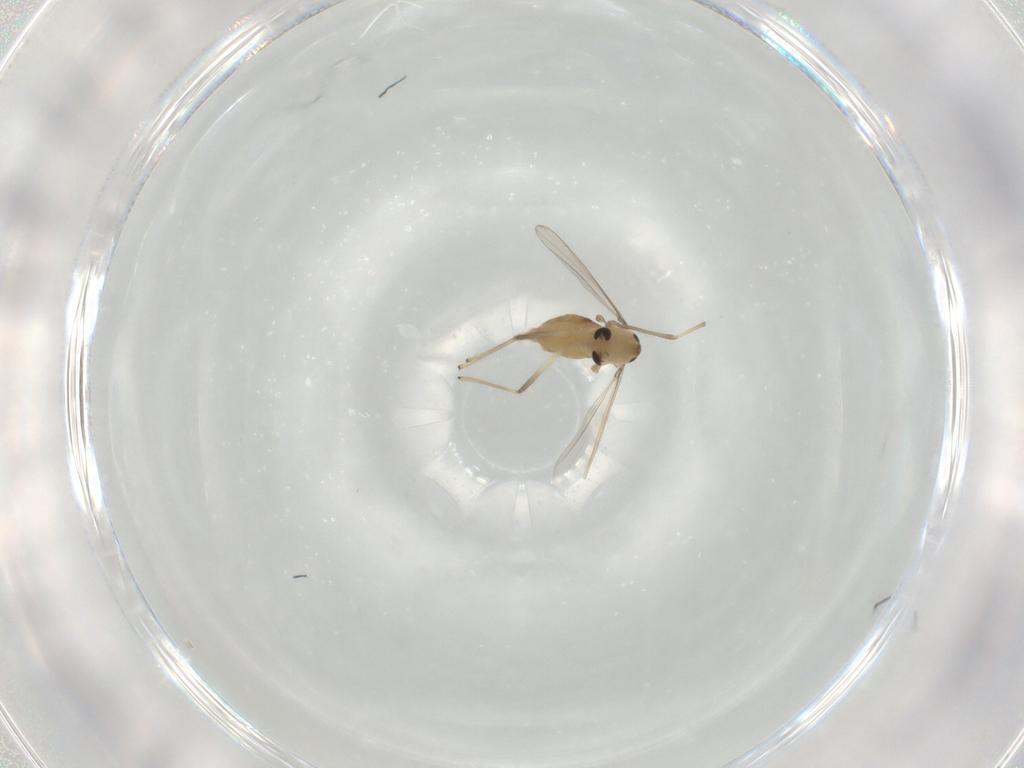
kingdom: Animalia
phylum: Arthropoda
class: Insecta
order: Diptera
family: Chironomidae
